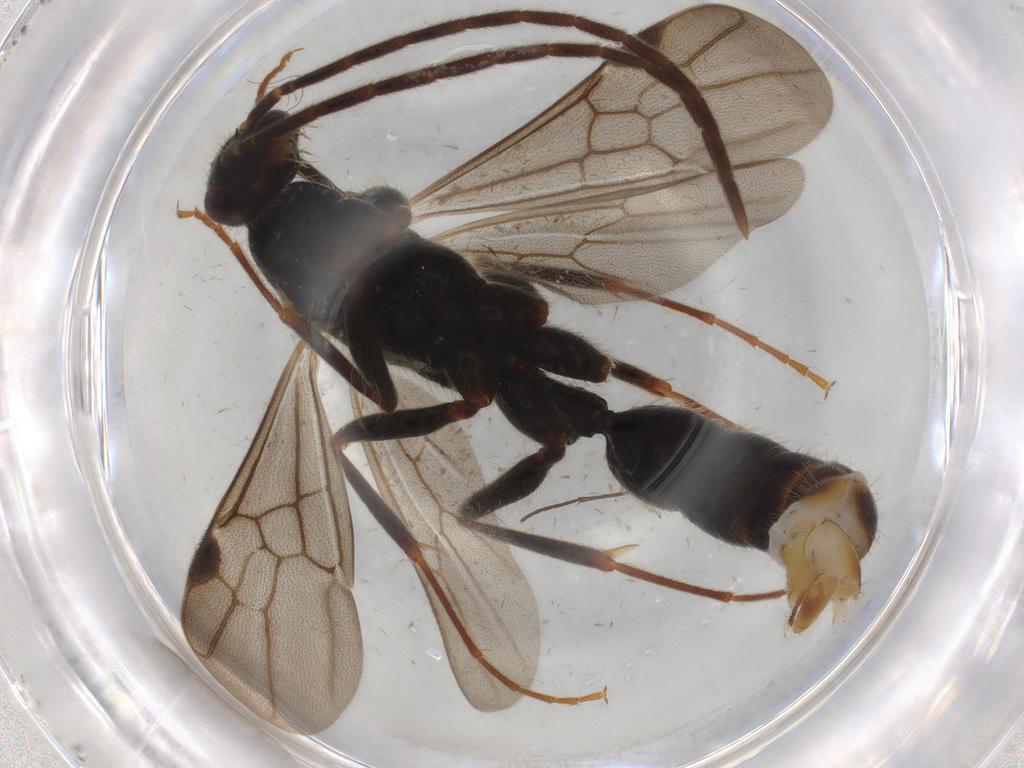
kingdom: Animalia
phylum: Arthropoda
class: Insecta
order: Hymenoptera
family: Formicidae
